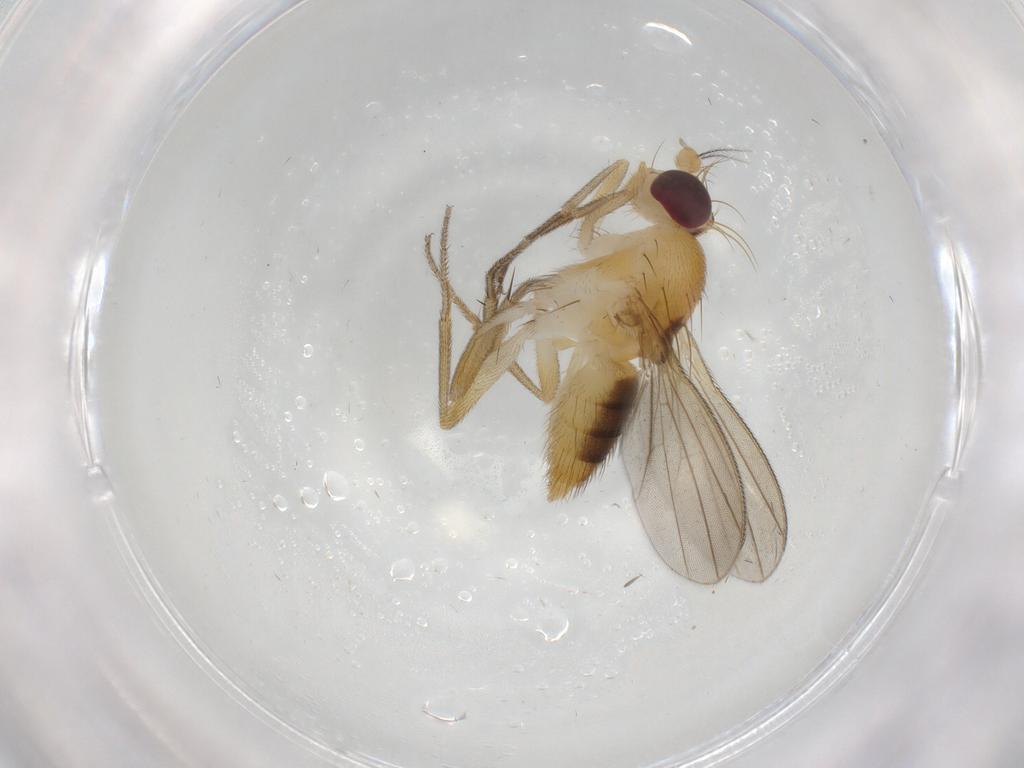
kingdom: Animalia
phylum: Arthropoda
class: Insecta
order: Diptera
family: Clusiidae
